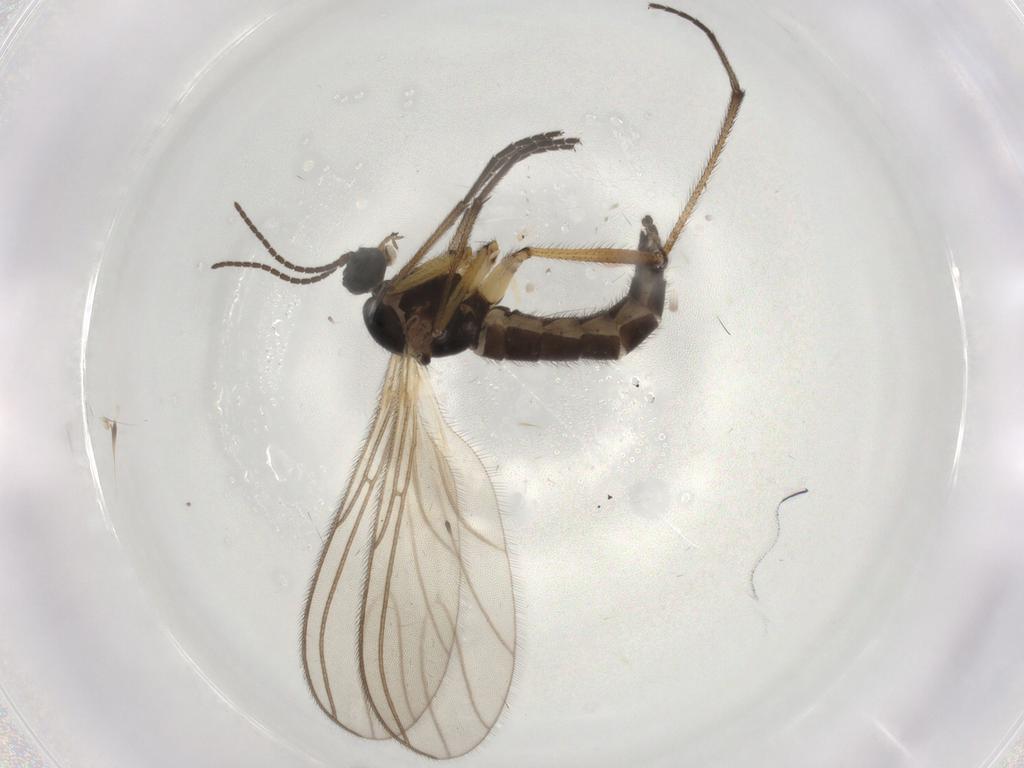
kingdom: Animalia
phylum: Arthropoda
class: Insecta
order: Diptera
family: Sciaridae
